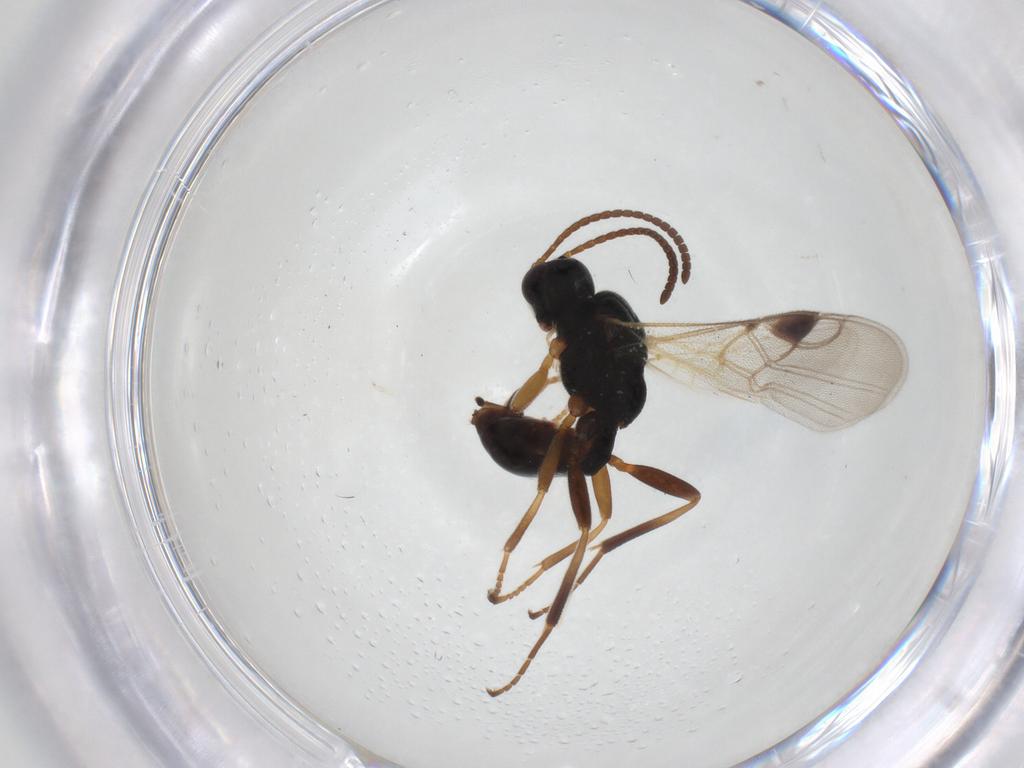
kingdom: Animalia
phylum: Arthropoda
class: Insecta
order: Hymenoptera
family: Braconidae
